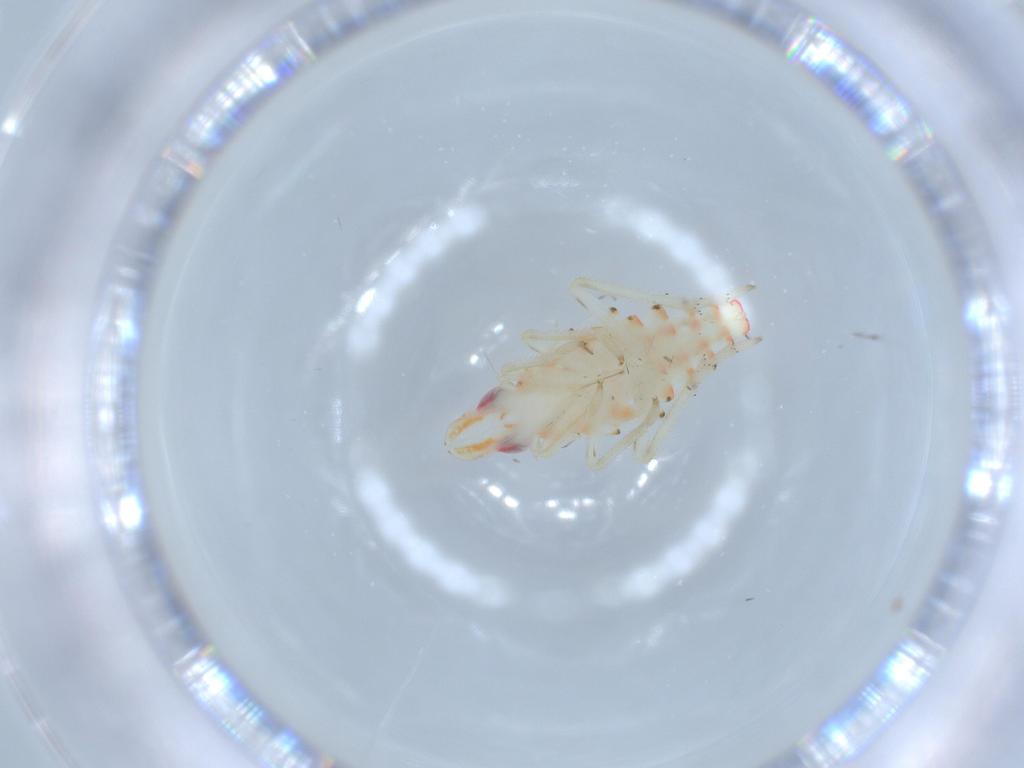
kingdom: Animalia
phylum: Arthropoda
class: Insecta
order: Hemiptera
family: Tropiduchidae
